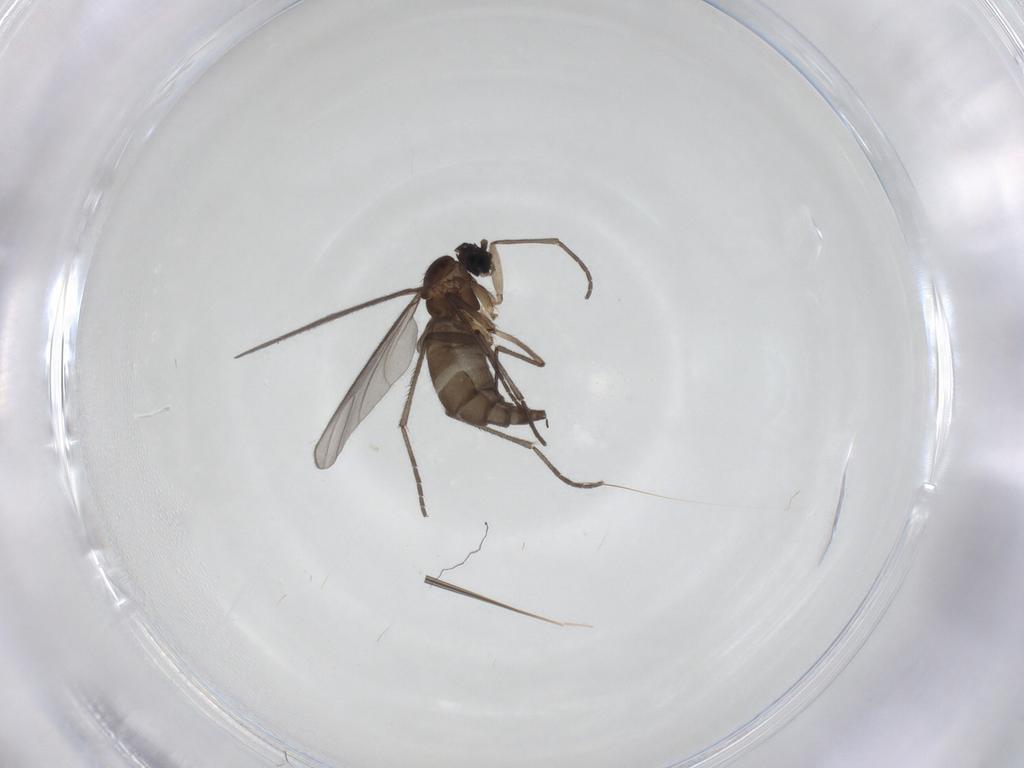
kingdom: Animalia
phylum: Arthropoda
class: Insecta
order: Diptera
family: Sciaridae
